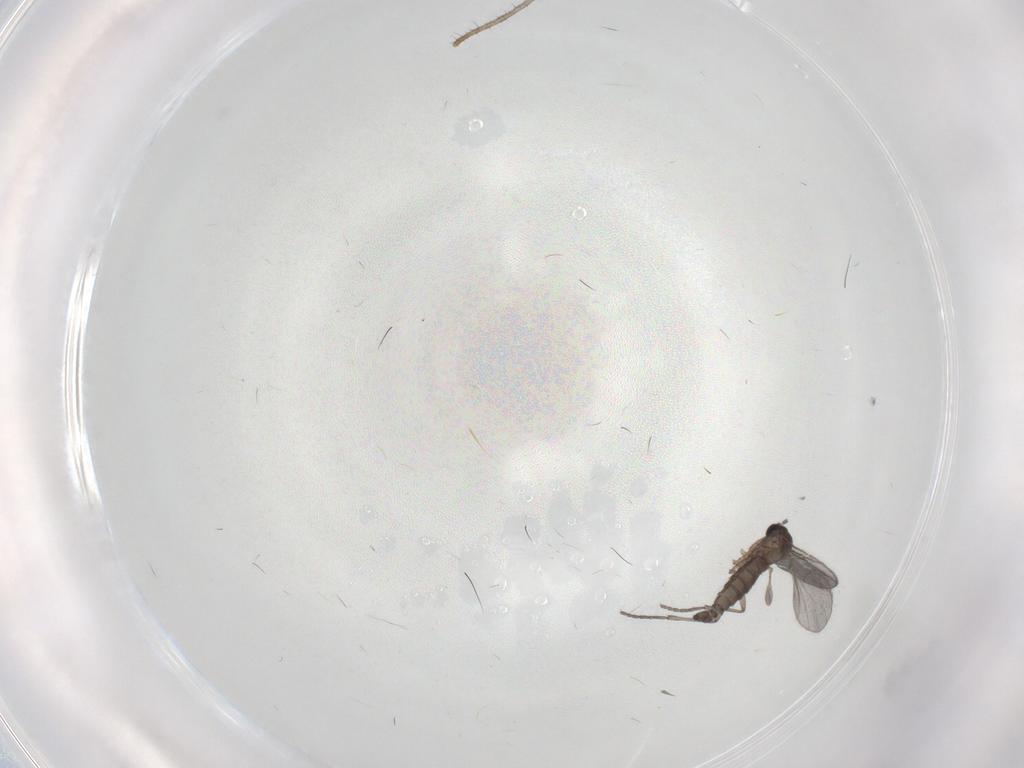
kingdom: Animalia
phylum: Arthropoda
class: Insecta
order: Diptera
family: Sciaridae
